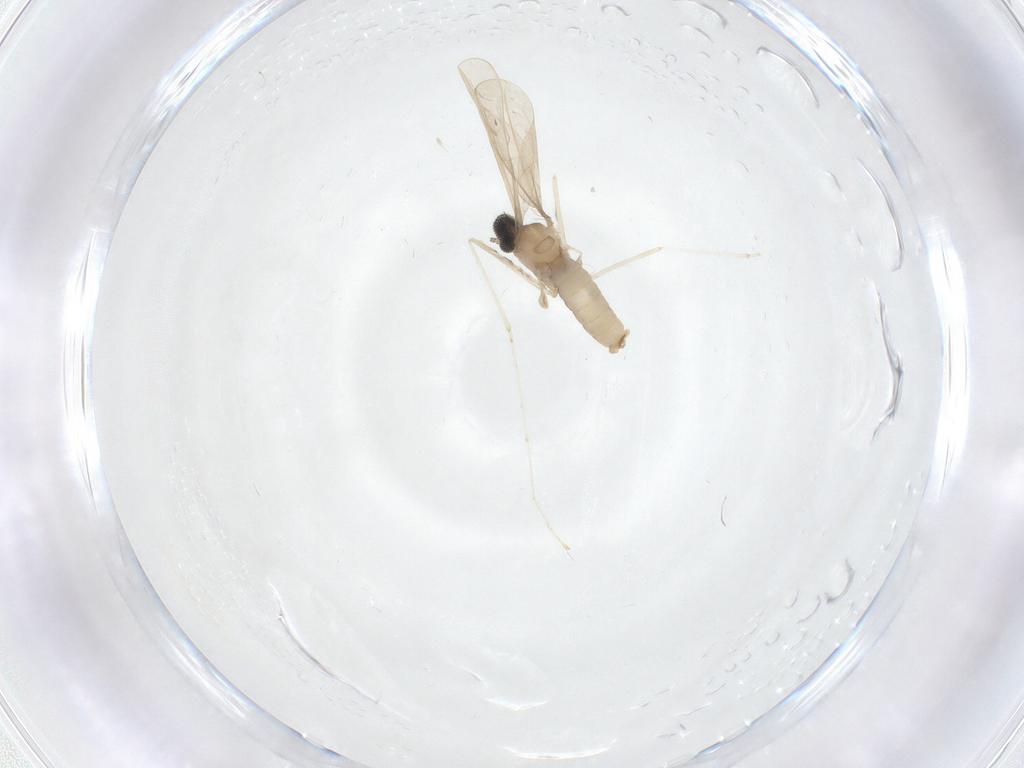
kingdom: Animalia
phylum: Arthropoda
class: Insecta
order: Diptera
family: Cecidomyiidae
